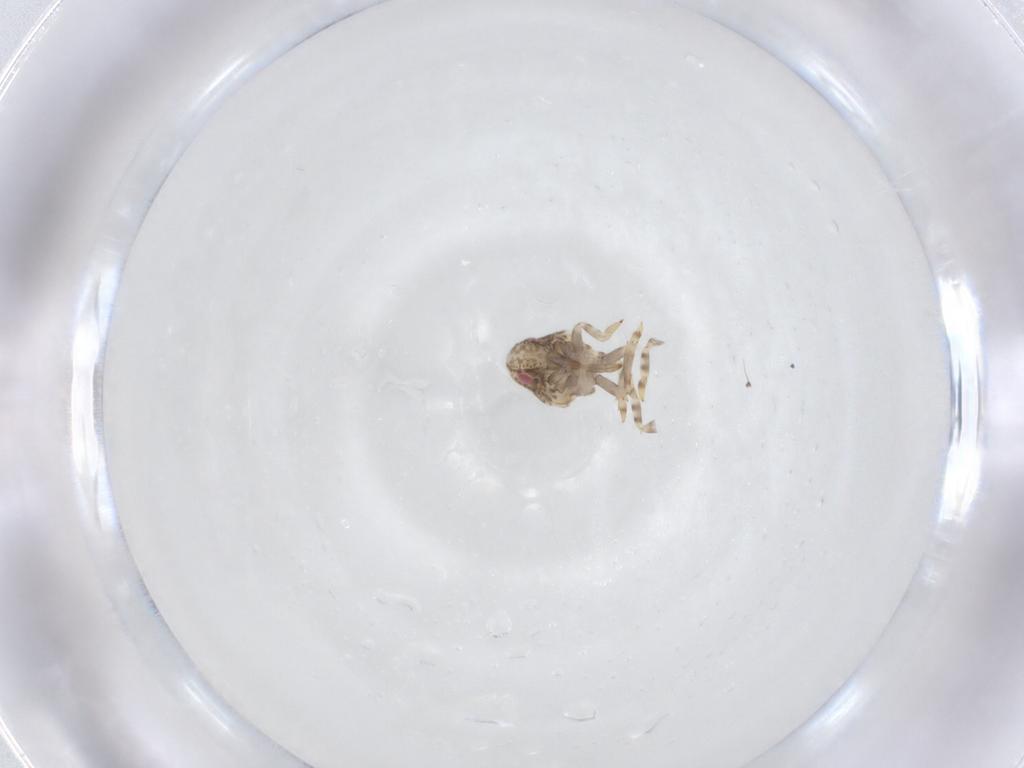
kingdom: Animalia
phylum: Arthropoda
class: Insecta
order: Hemiptera
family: Acanaloniidae
